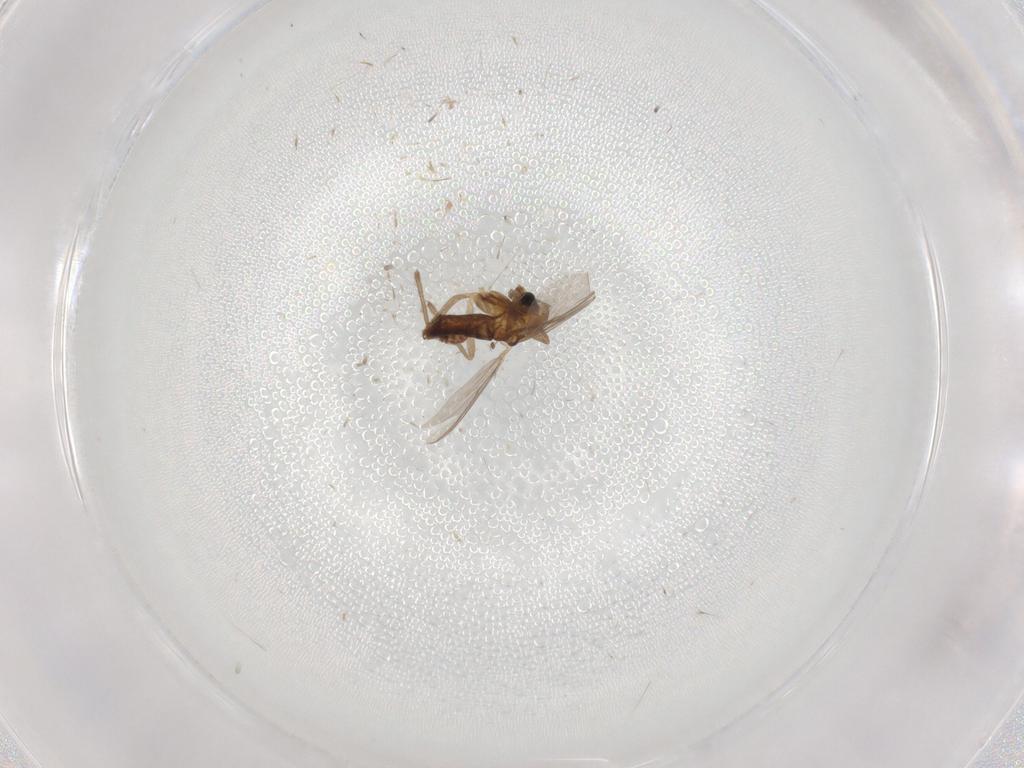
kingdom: Animalia
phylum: Arthropoda
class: Insecta
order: Diptera
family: Chironomidae
